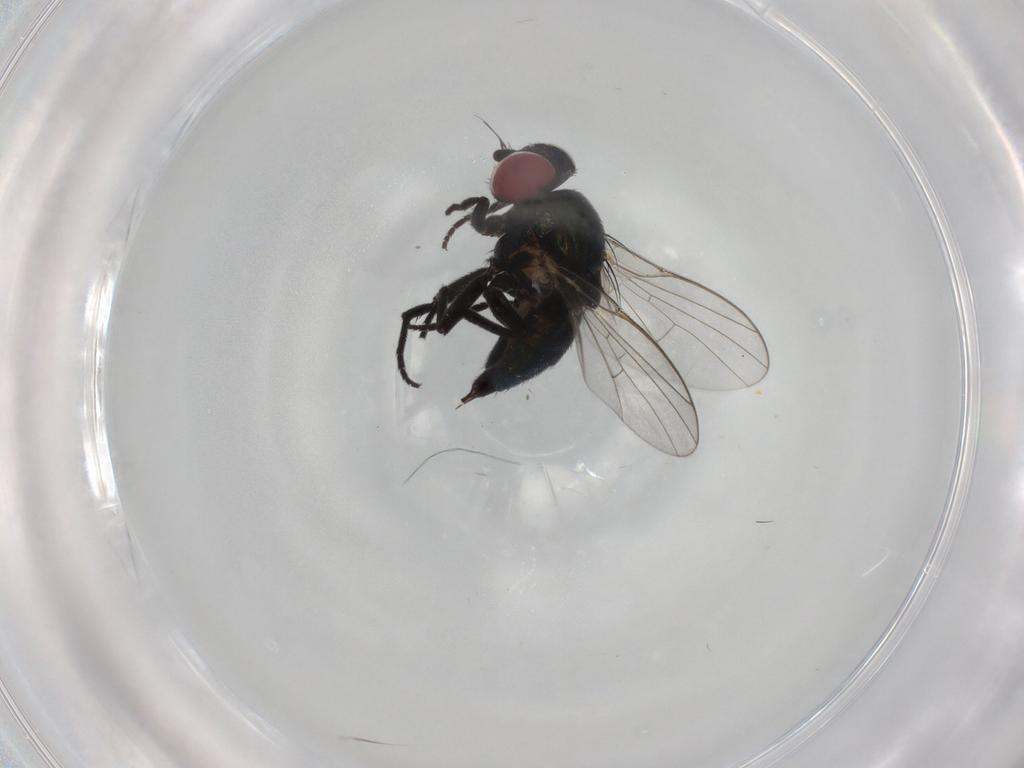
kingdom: Animalia
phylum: Arthropoda
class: Insecta
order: Diptera
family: Agromyzidae
